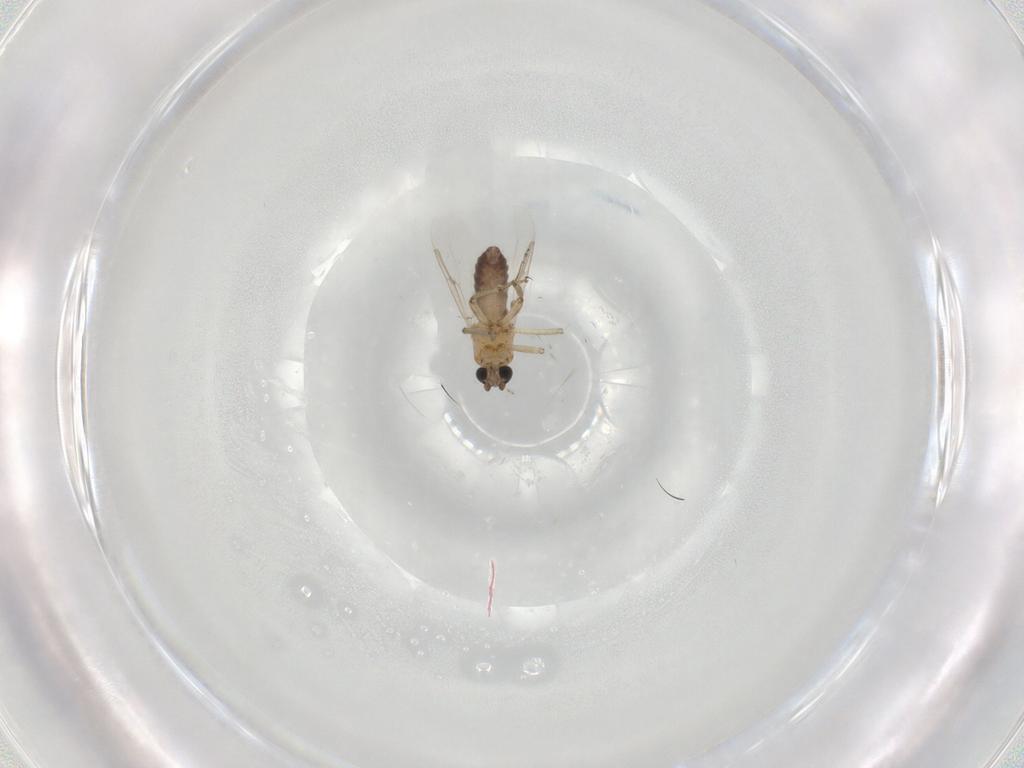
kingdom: Animalia
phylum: Arthropoda
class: Insecta
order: Diptera
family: Ceratopogonidae
